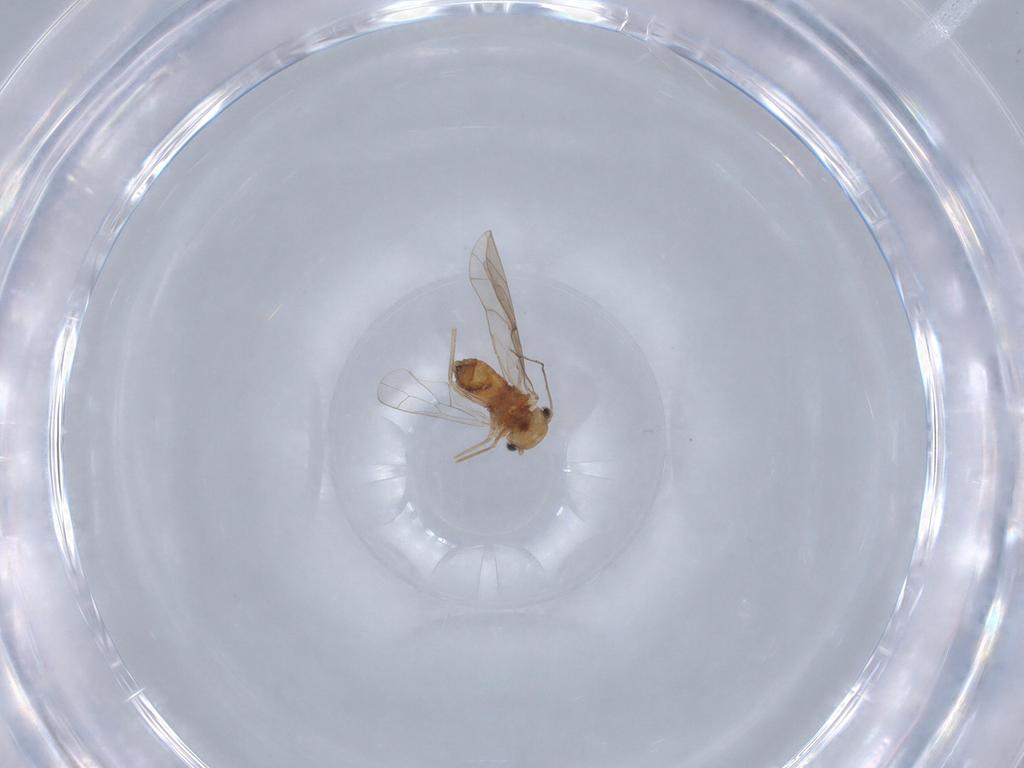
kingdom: Animalia
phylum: Arthropoda
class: Insecta
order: Psocodea
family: Ectopsocidae
